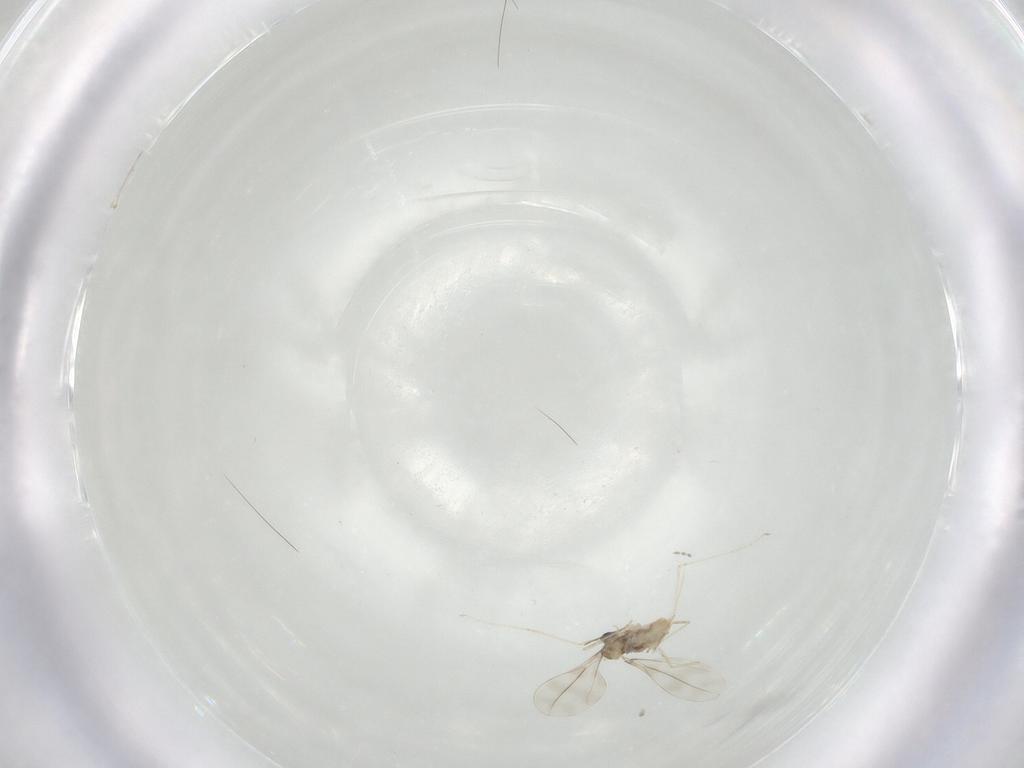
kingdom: Animalia
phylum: Arthropoda
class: Insecta
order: Diptera
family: Cecidomyiidae
